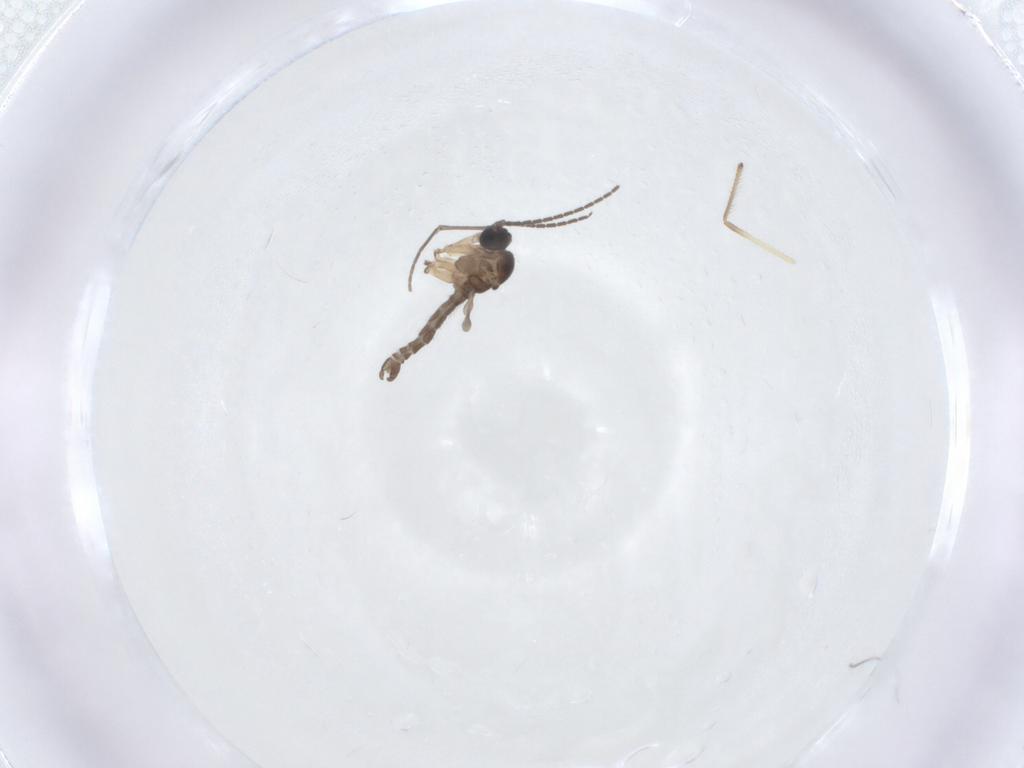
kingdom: Animalia
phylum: Arthropoda
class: Insecta
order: Diptera
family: Sciaridae
